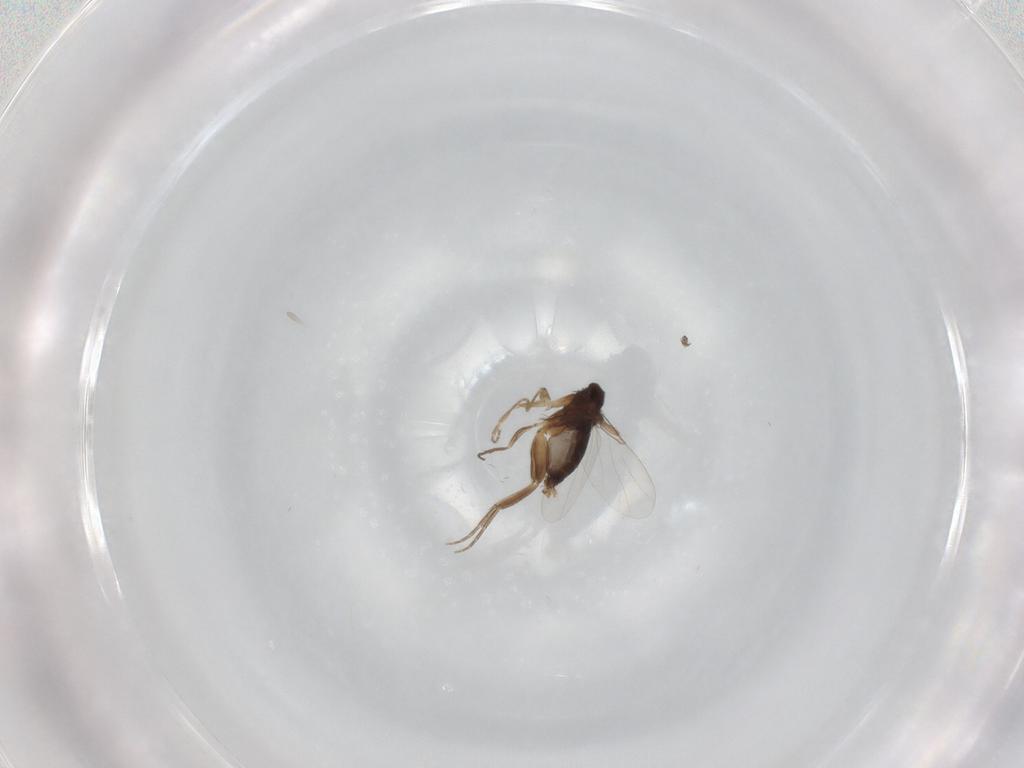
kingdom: Animalia
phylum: Arthropoda
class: Insecta
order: Diptera
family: Phoridae
